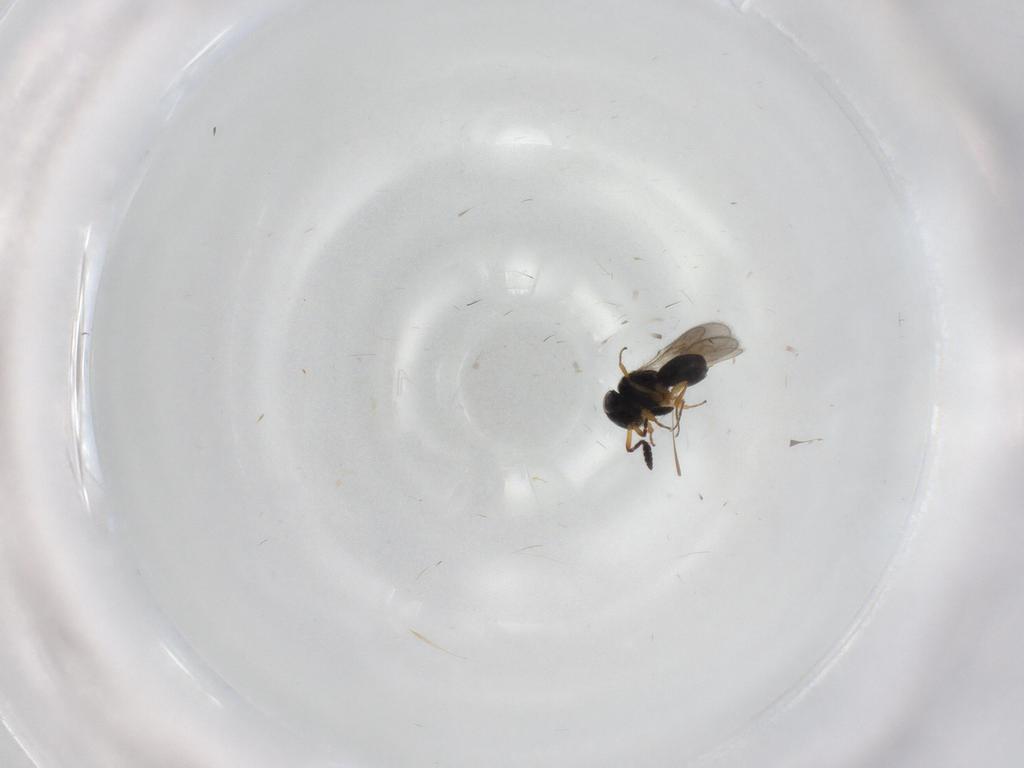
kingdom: Animalia
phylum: Arthropoda
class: Insecta
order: Hymenoptera
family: Scelionidae
